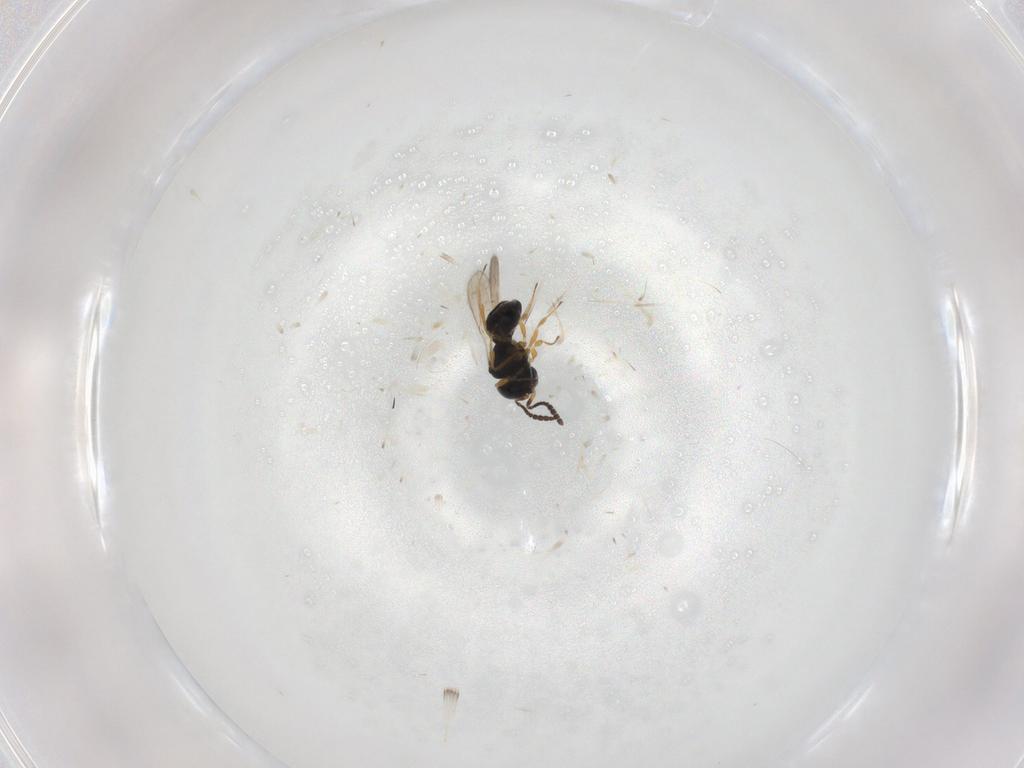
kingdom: Animalia
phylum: Arthropoda
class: Insecta
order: Hymenoptera
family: Scelionidae
